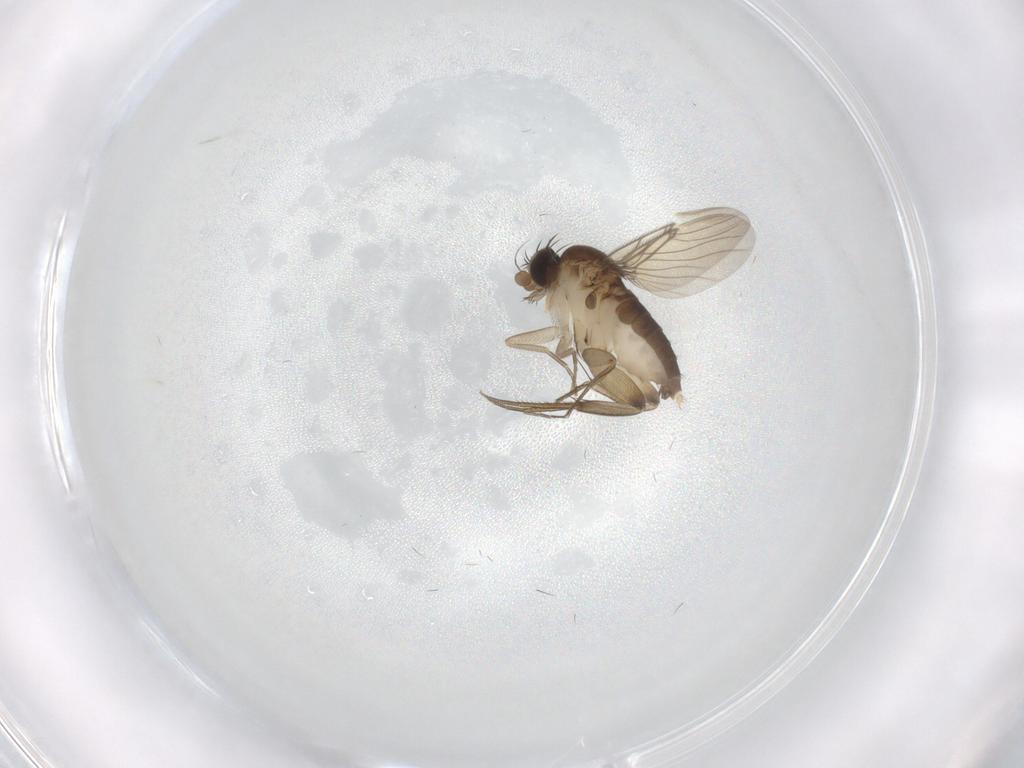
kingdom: Animalia
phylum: Arthropoda
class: Insecta
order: Diptera
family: Phoridae
